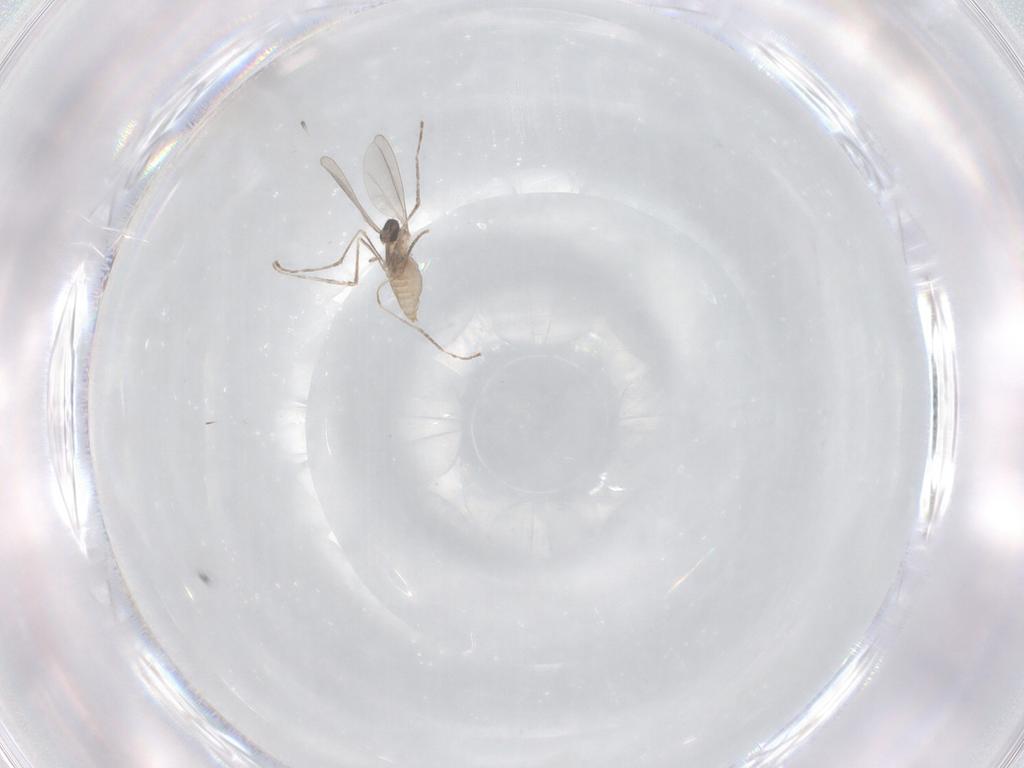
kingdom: Animalia
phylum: Arthropoda
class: Insecta
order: Diptera
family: Cecidomyiidae
